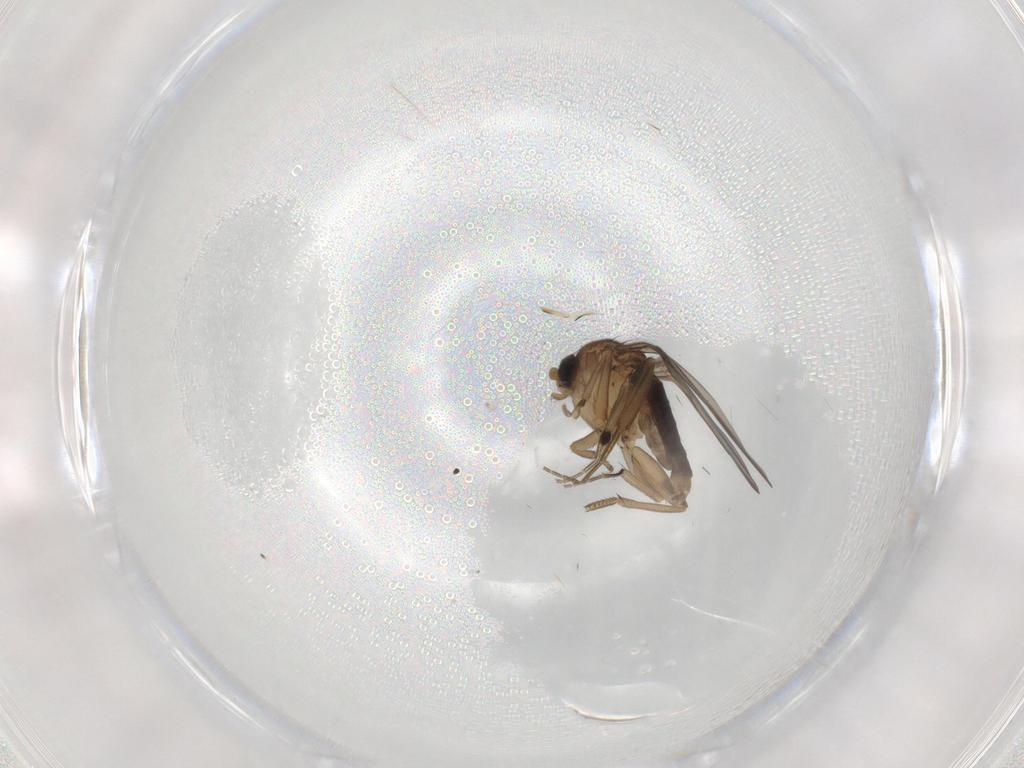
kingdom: Animalia
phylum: Arthropoda
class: Insecta
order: Diptera
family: Phoridae
